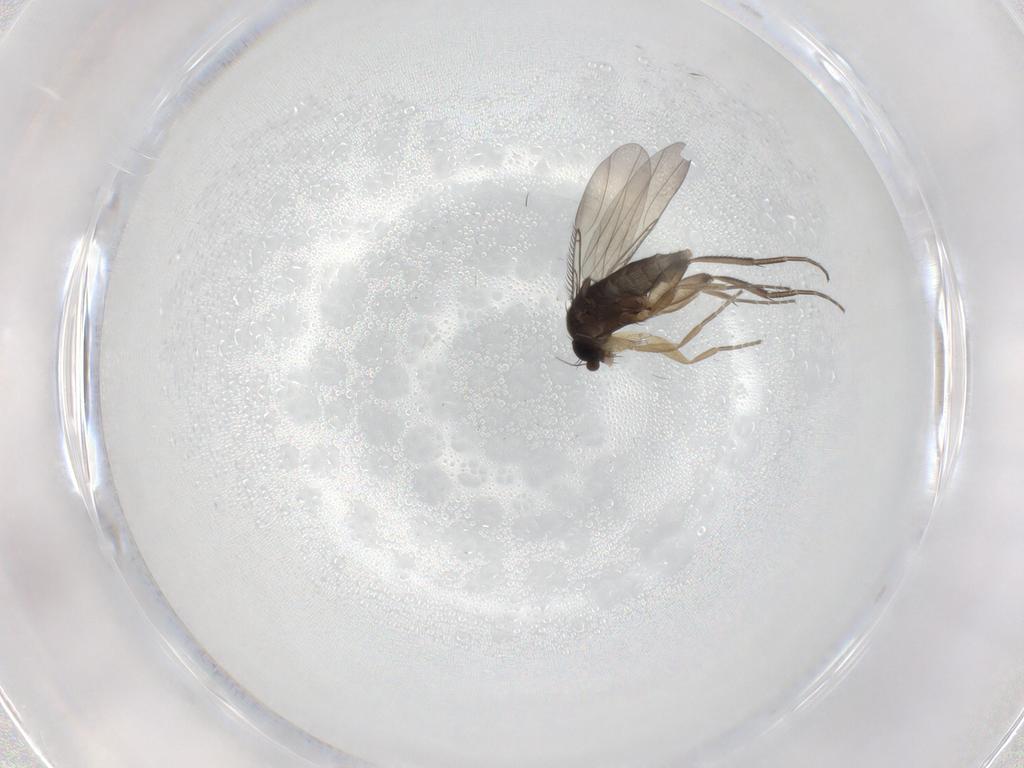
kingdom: Animalia
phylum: Arthropoda
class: Insecta
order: Diptera
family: Phoridae
